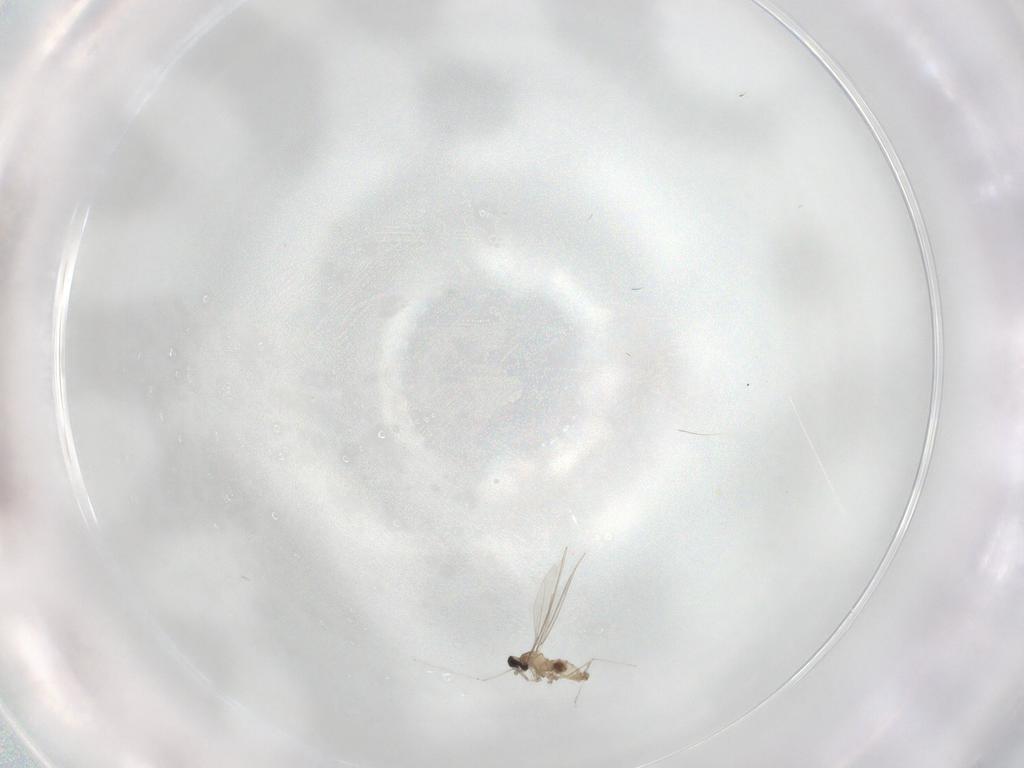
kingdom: Animalia
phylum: Arthropoda
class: Insecta
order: Diptera
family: Cecidomyiidae
